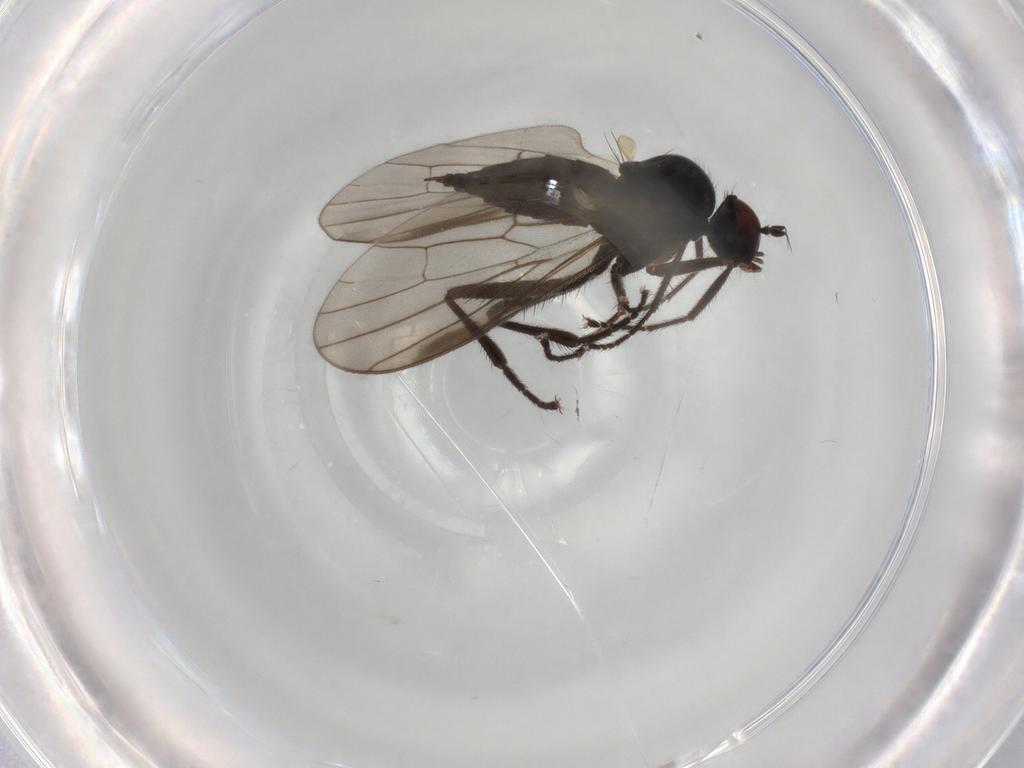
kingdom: Animalia
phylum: Arthropoda
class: Insecta
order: Diptera
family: Hybotidae
